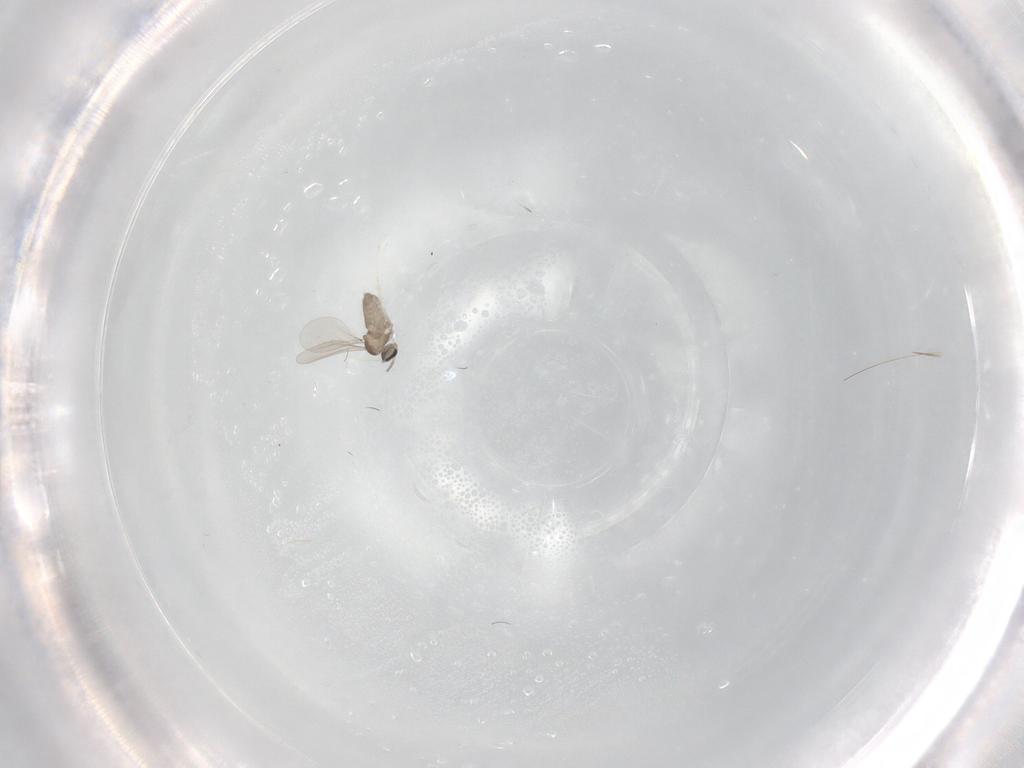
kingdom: Animalia
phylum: Arthropoda
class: Insecta
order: Diptera
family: Cecidomyiidae
